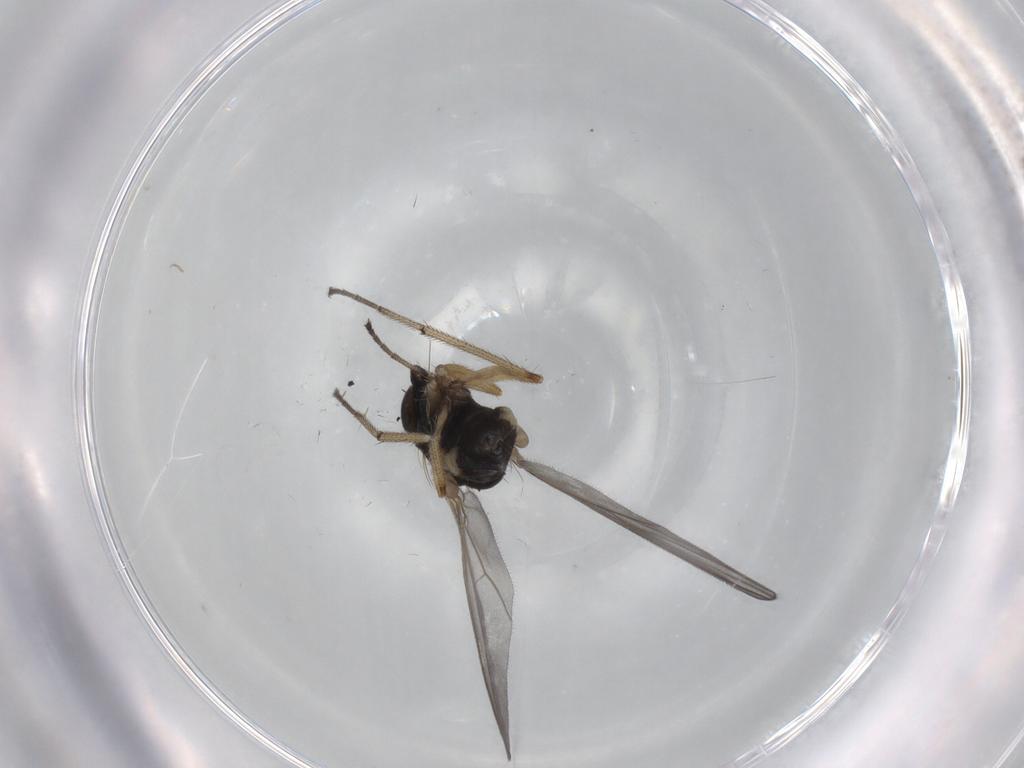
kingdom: Animalia
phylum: Arthropoda
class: Insecta
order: Diptera
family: Dolichopodidae
